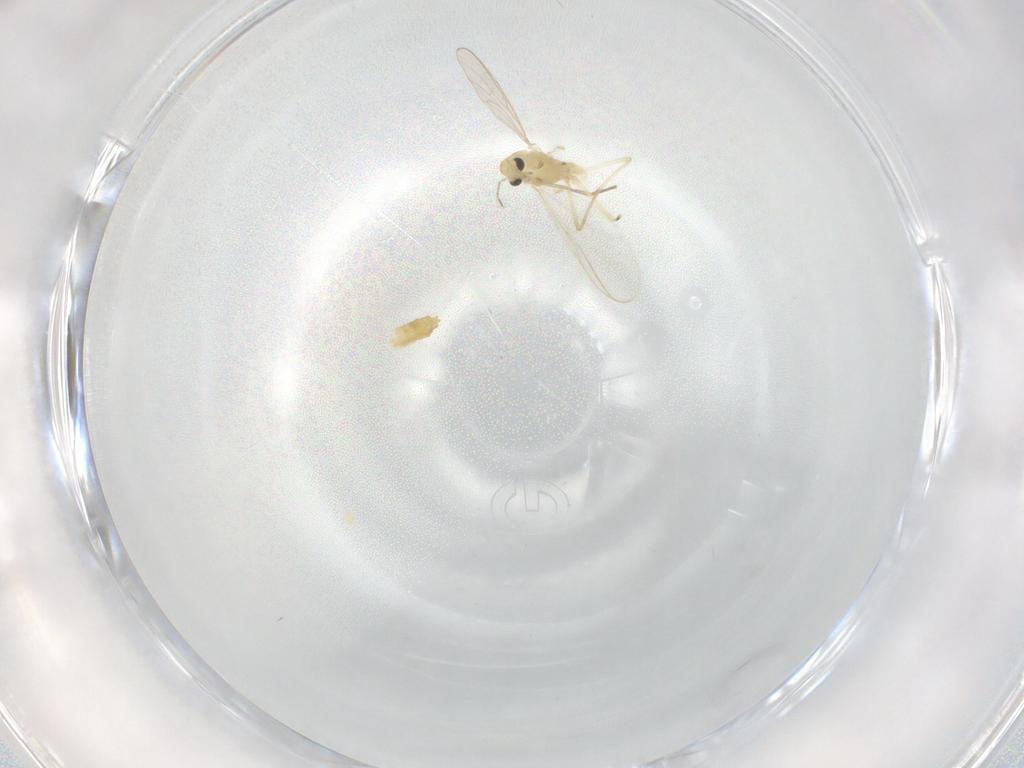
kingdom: Animalia
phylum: Arthropoda
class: Insecta
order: Diptera
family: Chironomidae
